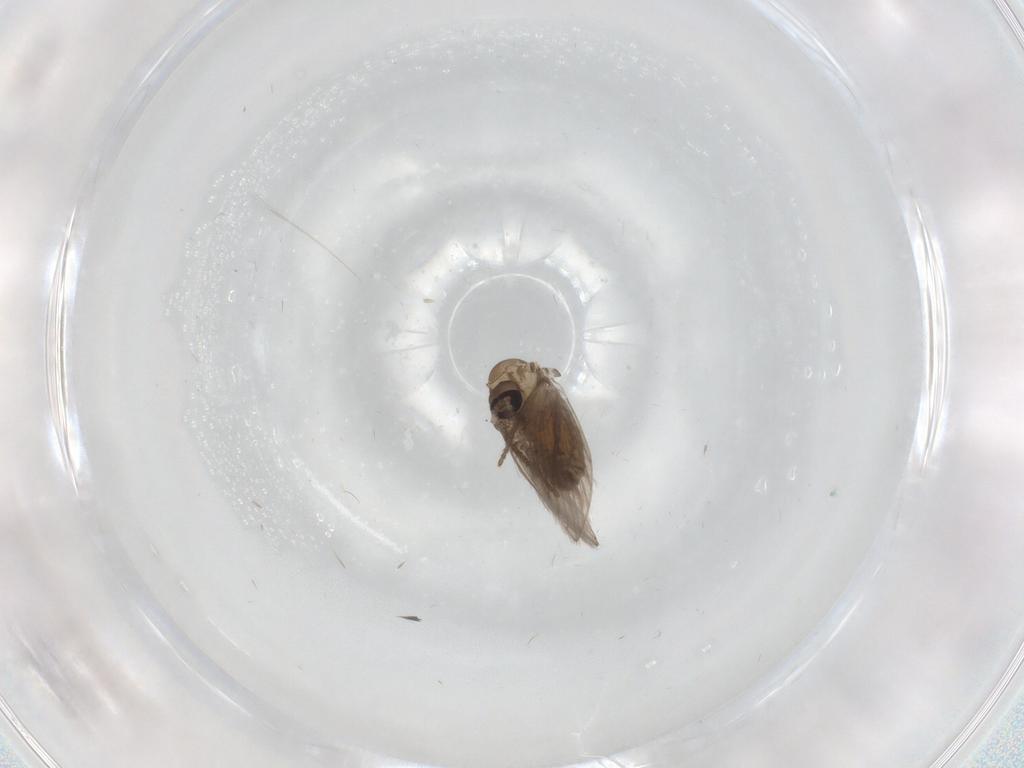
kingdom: Animalia
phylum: Arthropoda
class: Insecta
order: Diptera
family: Psychodidae
